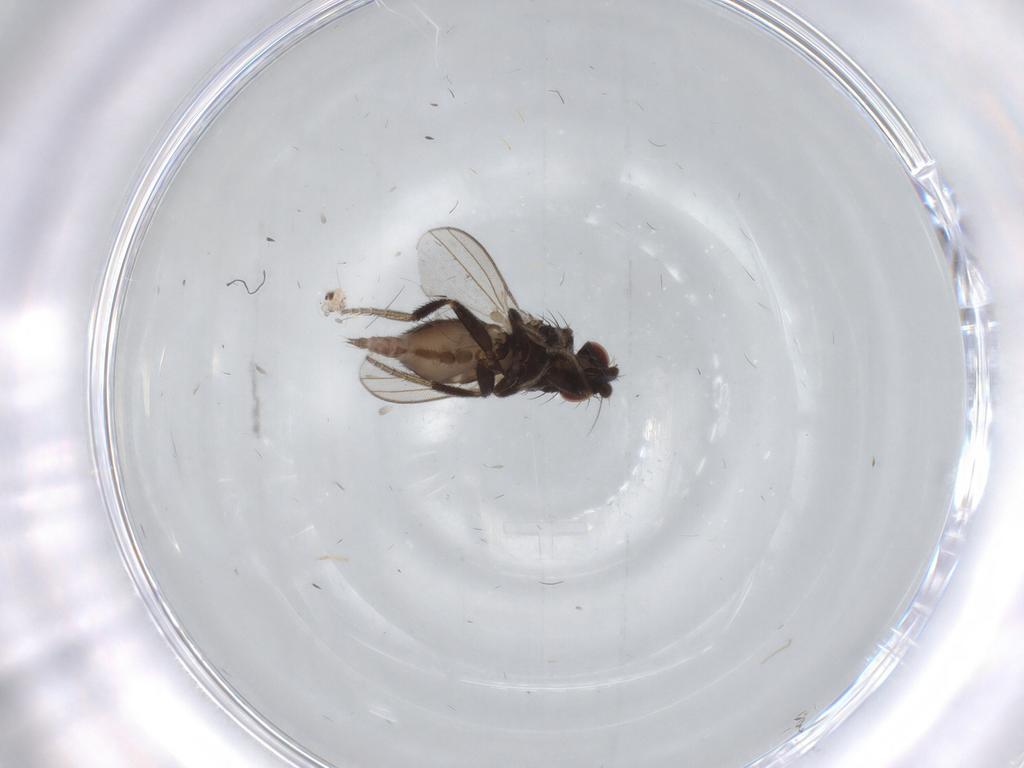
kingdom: Animalia
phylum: Arthropoda
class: Insecta
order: Diptera
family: Milichiidae
